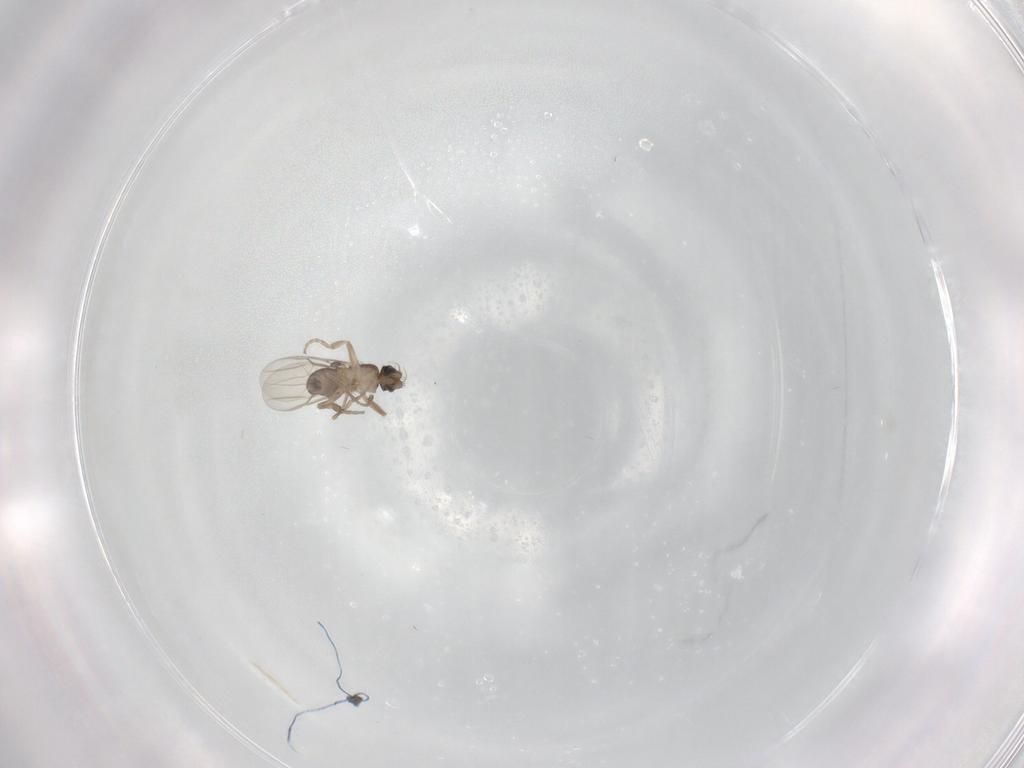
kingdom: Animalia
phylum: Arthropoda
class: Insecta
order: Diptera
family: Phoridae
